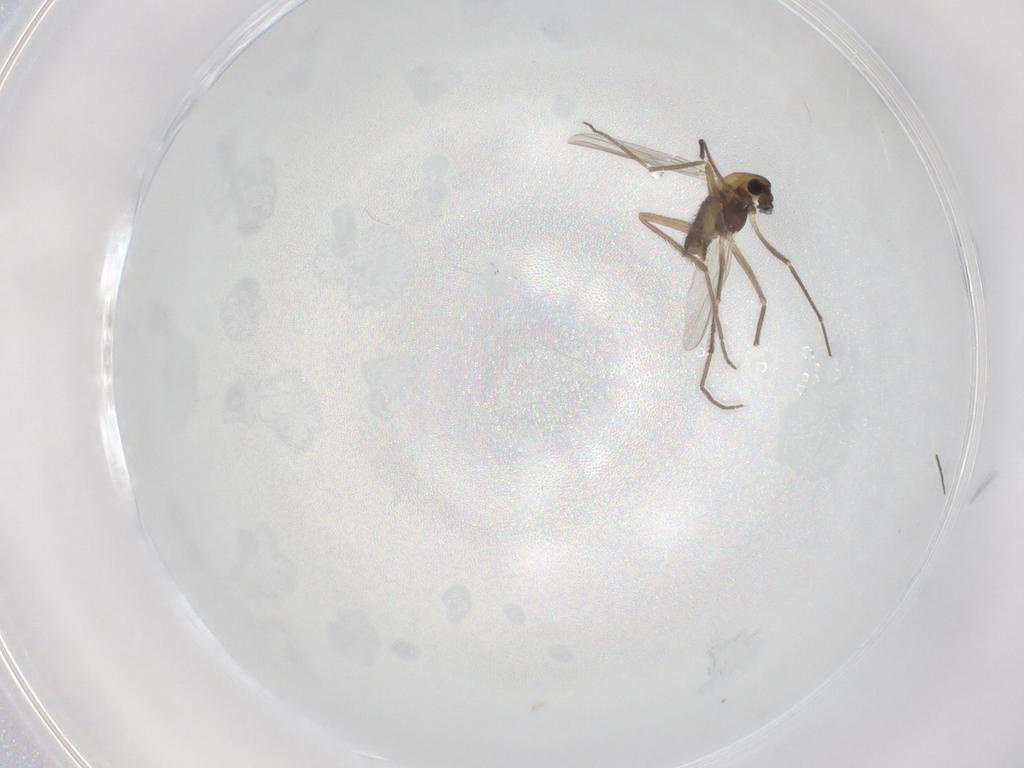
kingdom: Animalia
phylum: Arthropoda
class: Insecta
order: Diptera
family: Chironomidae
